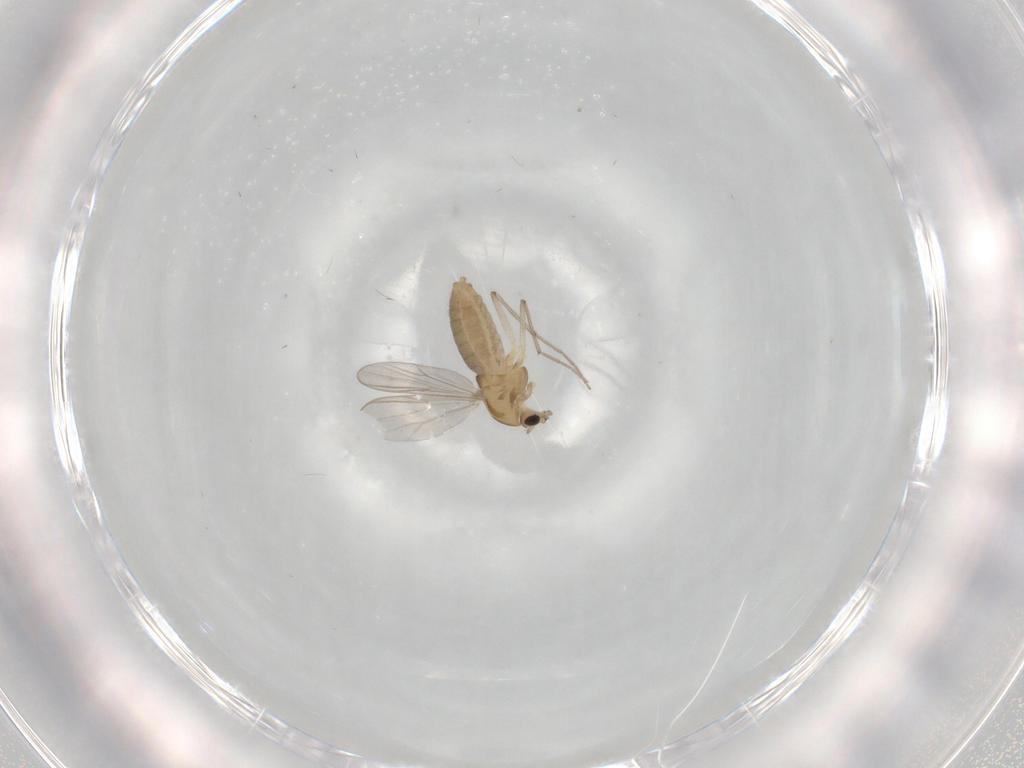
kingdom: Animalia
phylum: Arthropoda
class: Insecta
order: Diptera
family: Chironomidae
